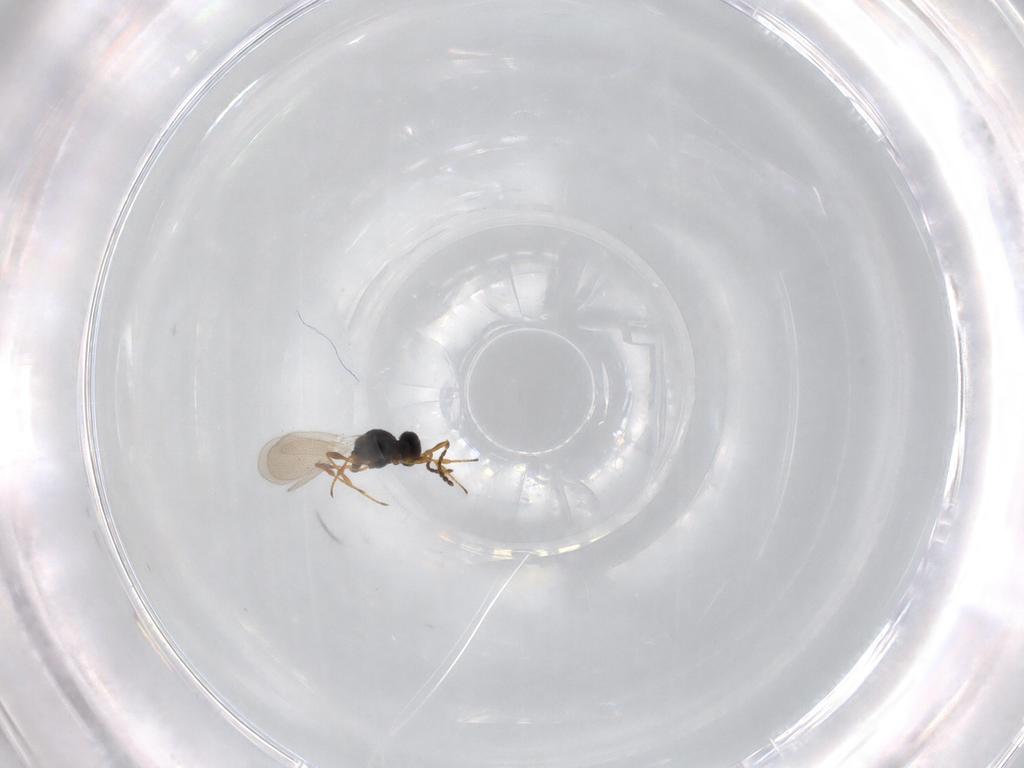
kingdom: Animalia
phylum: Arthropoda
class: Insecta
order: Diptera
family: Mythicomyiidae
